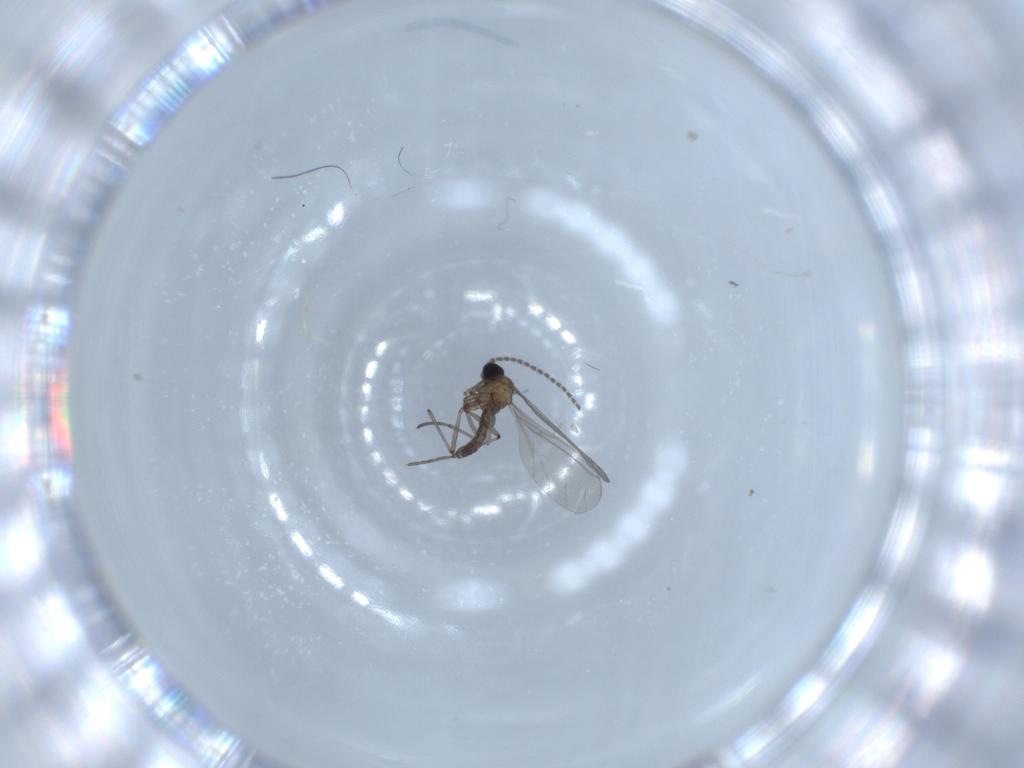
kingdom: Animalia
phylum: Arthropoda
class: Insecta
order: Diptera
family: Sciaridae
